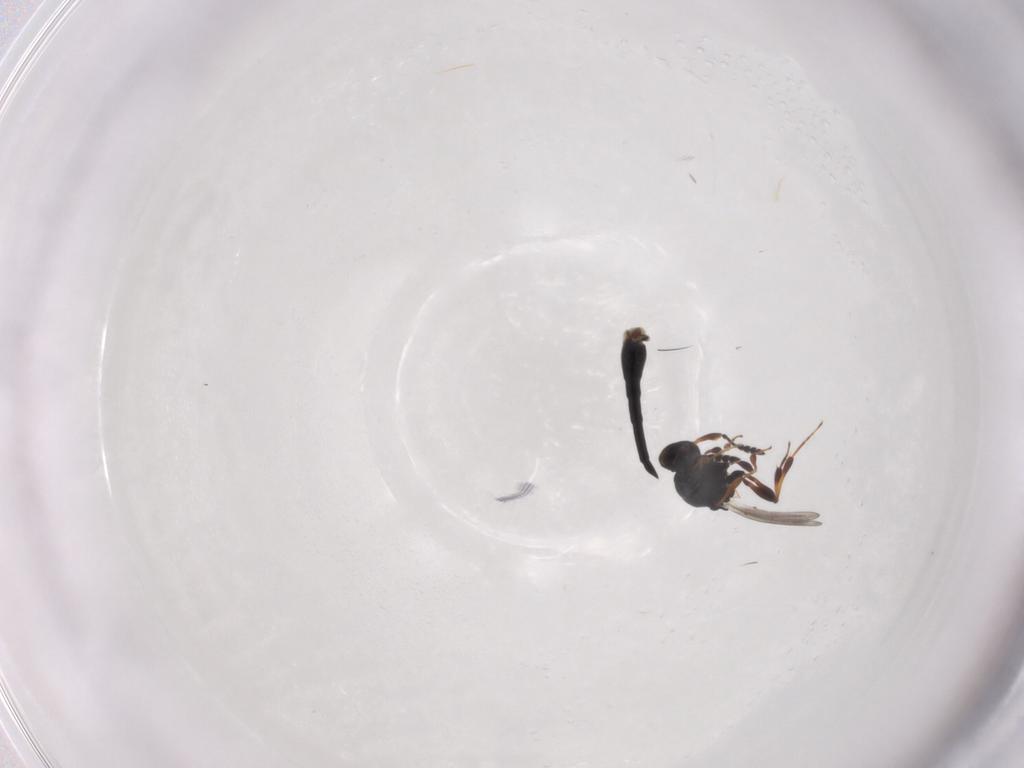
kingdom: Animalia
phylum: Arthropoda
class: Insecta
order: Hymenoptera
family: Platygastridae
